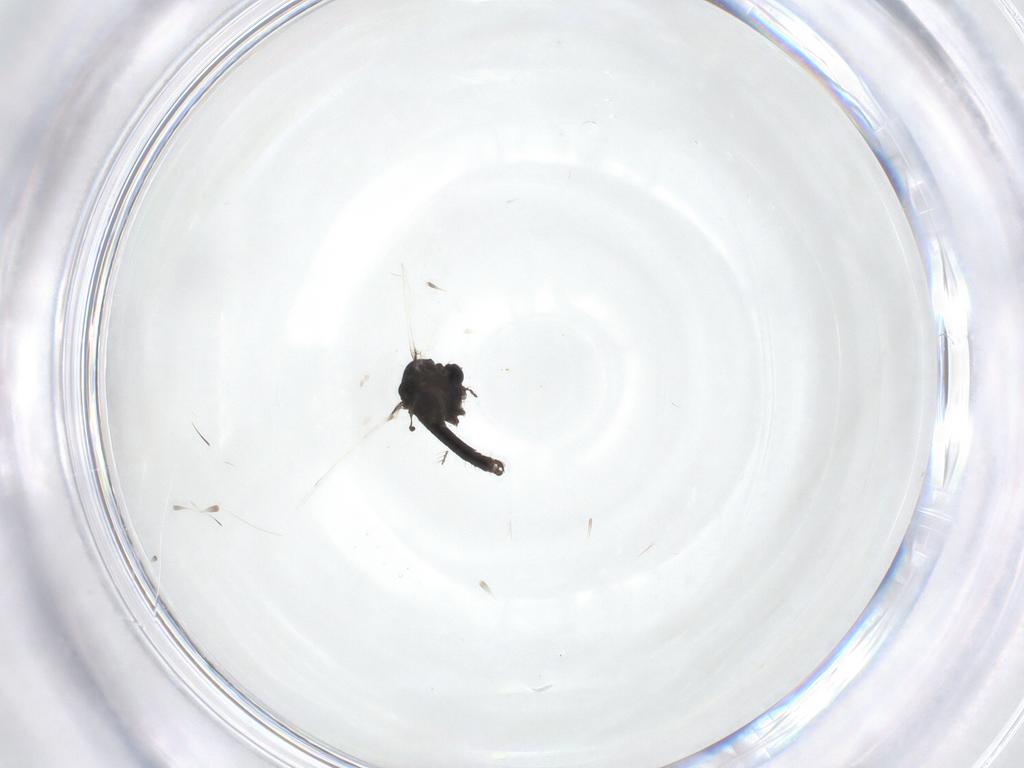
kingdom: Animalia
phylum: Arthropoda
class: Insecta
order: Diptera
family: Chironomidae
